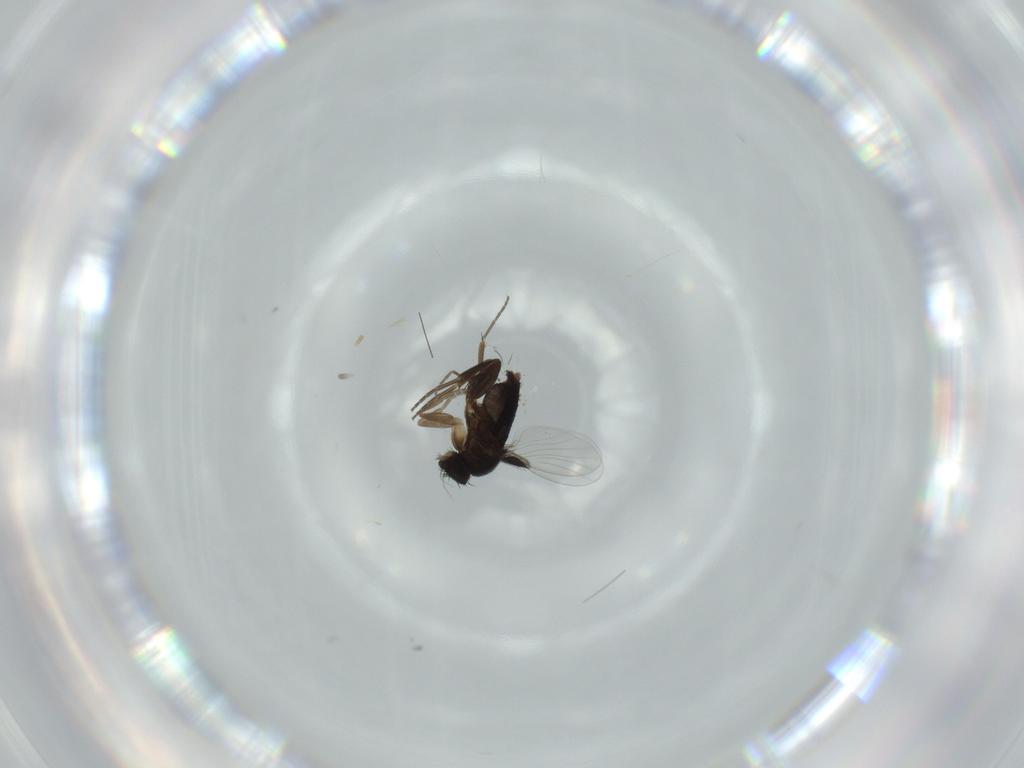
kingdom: Animalia
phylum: Arthropoda
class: Insecta
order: Diptera
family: Phoridae
